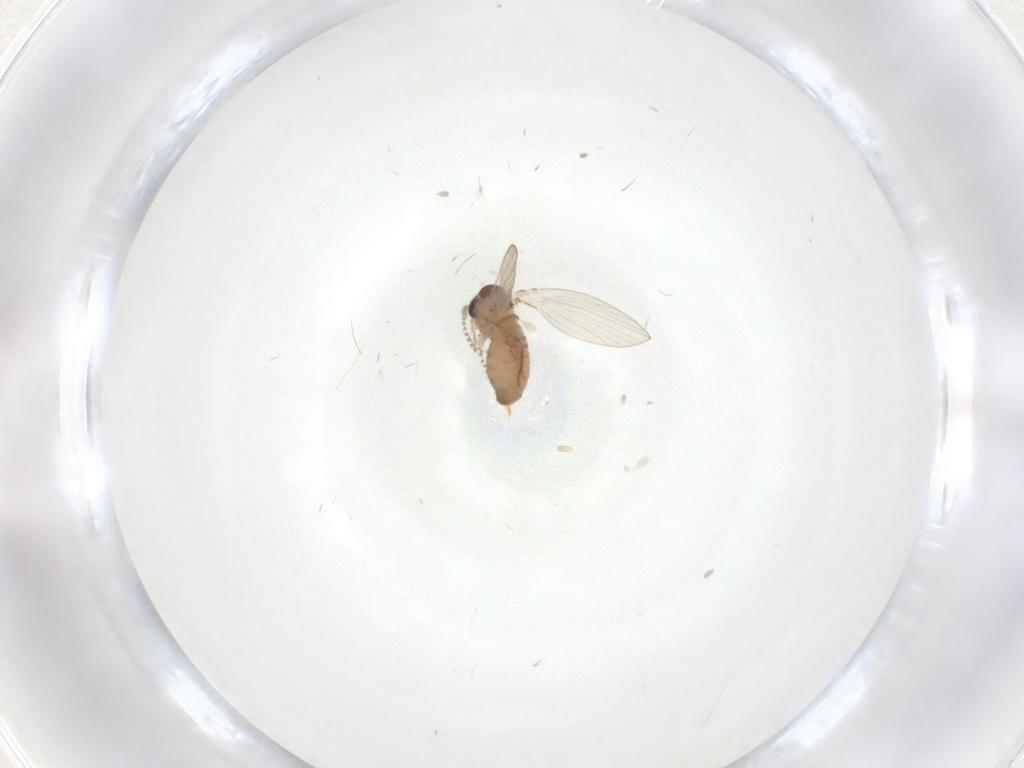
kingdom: Animalia
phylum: Arthropoda
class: Insecta
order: Diptera
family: Psychodidae
